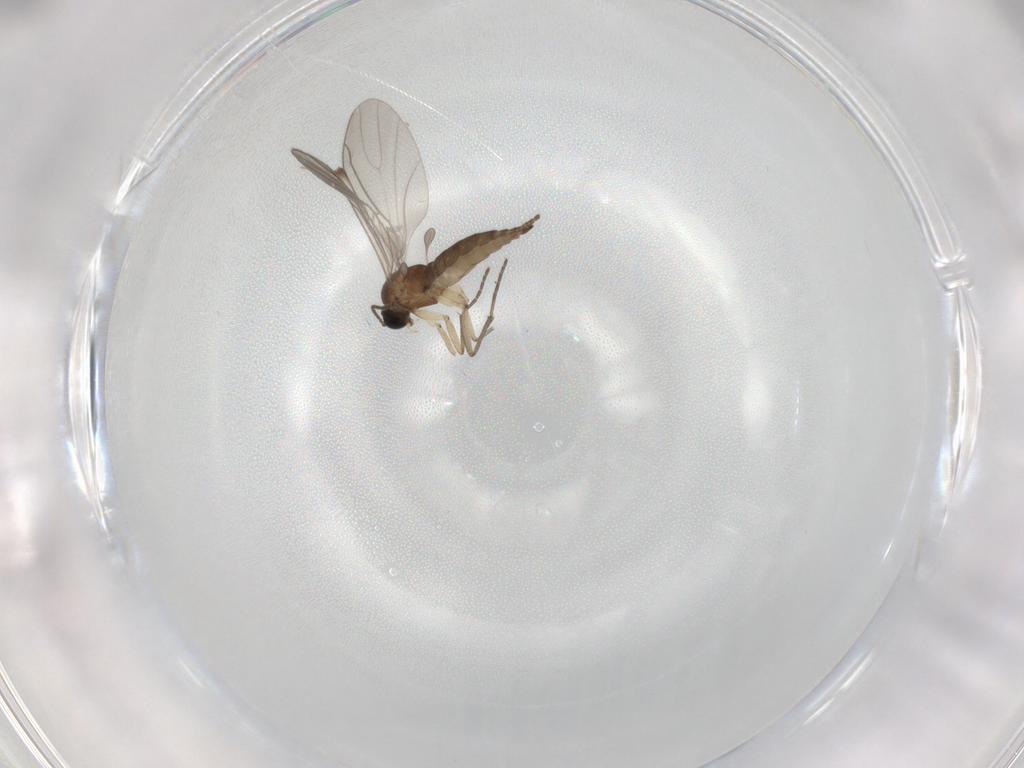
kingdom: Animalia
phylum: Arthropoda
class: Insecta
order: Diptera
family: Sciaridae
